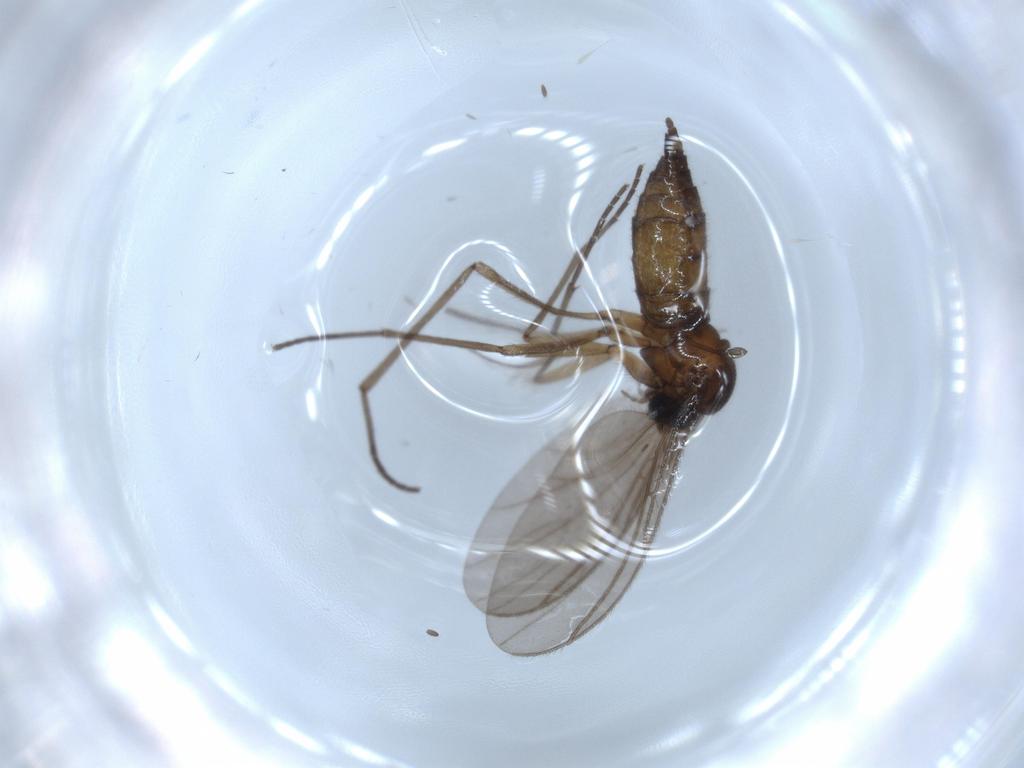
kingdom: Animalia
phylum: Arthropoda
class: Insecta
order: Diptera
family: Sciaridae
